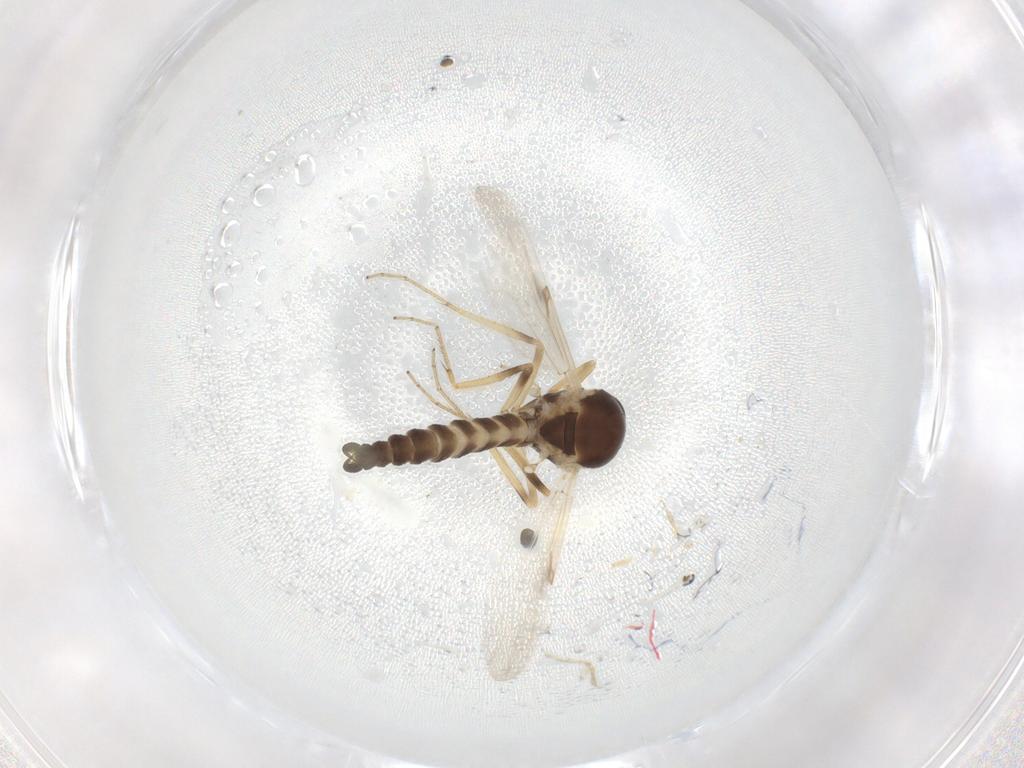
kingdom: Animalia
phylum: Arthropoda
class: Insecta
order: Diptera
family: Ceratopogonidae
